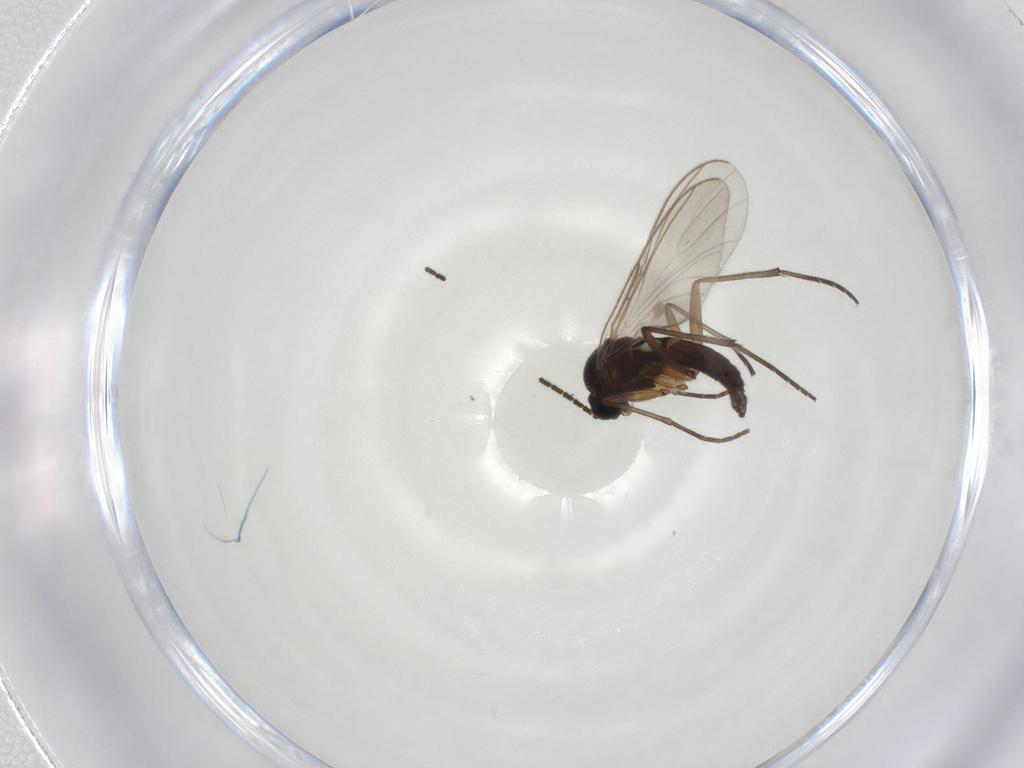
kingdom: Animalia
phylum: Arthropoda
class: Insecta
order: Diptera
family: Sciaridae
